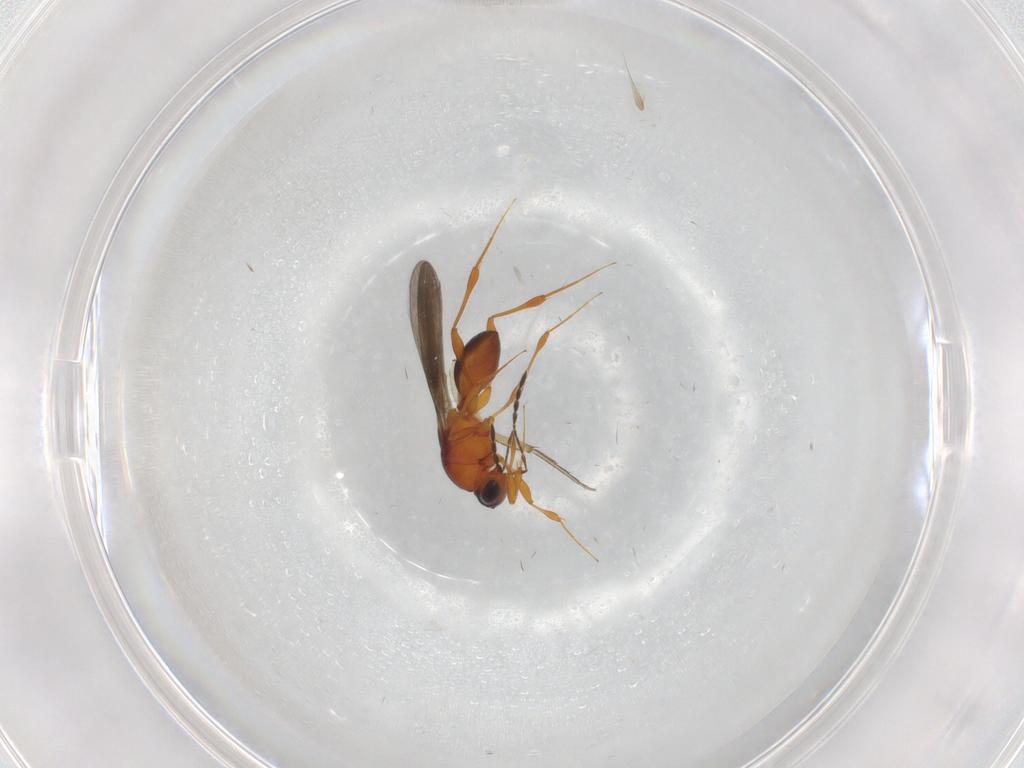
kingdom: Animalia
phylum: Arthropoda
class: Insecta
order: Hymenoptera
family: Platygastridae
